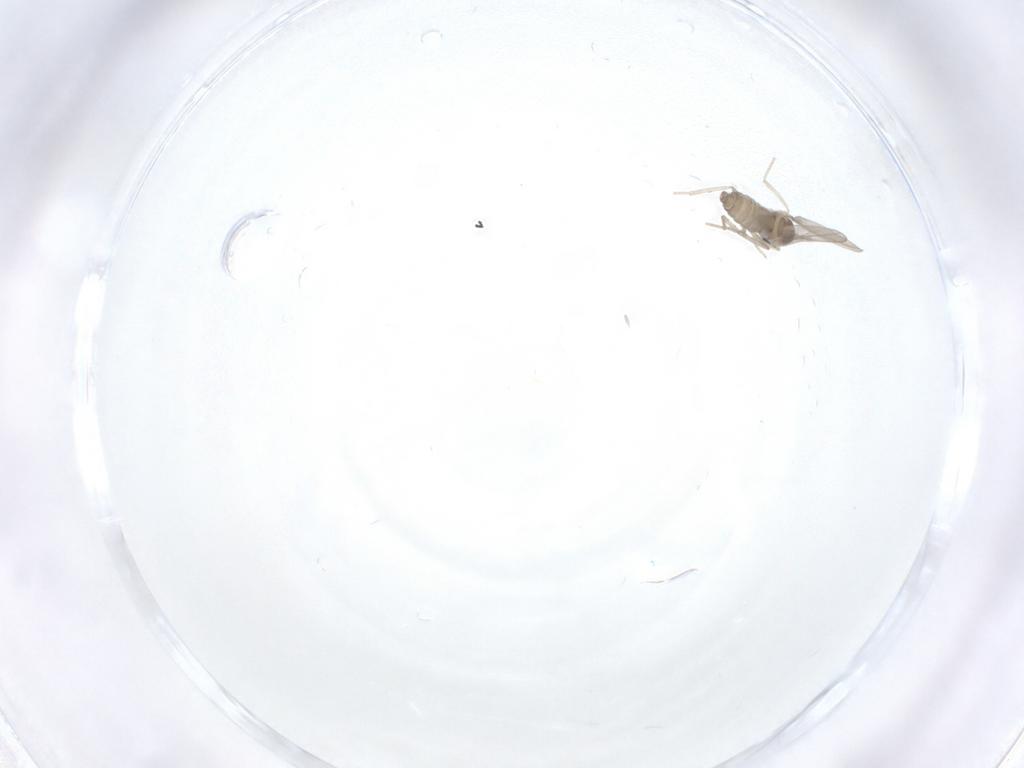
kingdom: Animalia
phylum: Arthropoda
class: Insecta
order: Diptera
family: Cecidomyiidae
